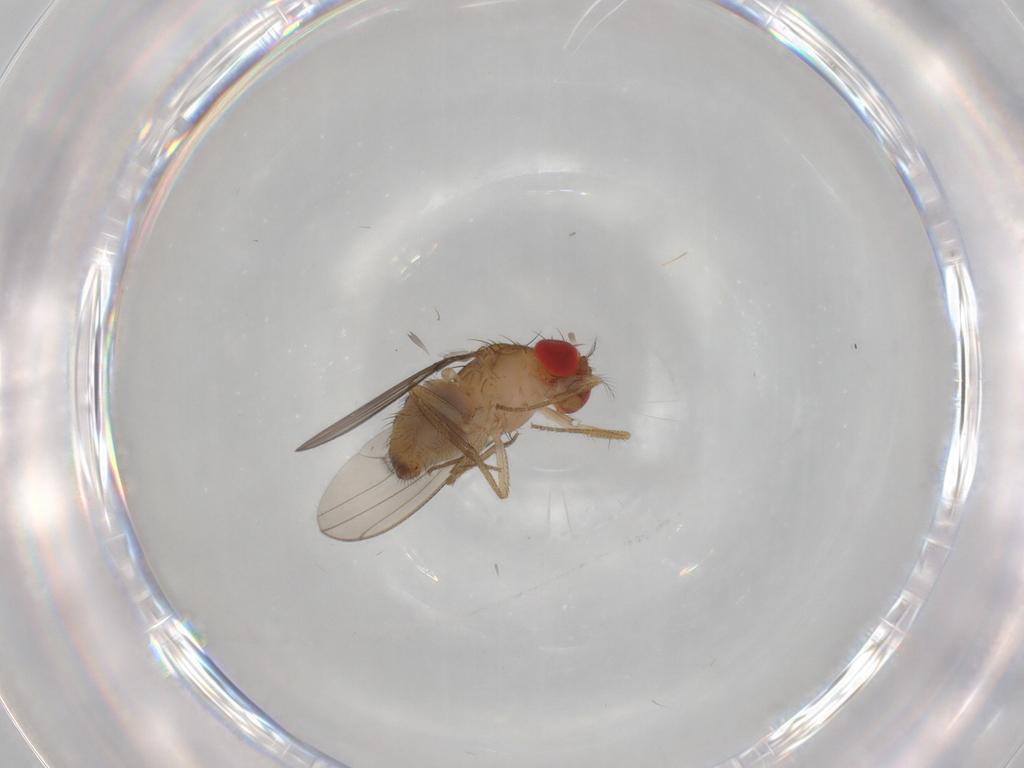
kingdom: Animalia
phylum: Arthropoda
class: Insecta
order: Diptera
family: Drosophilidae
